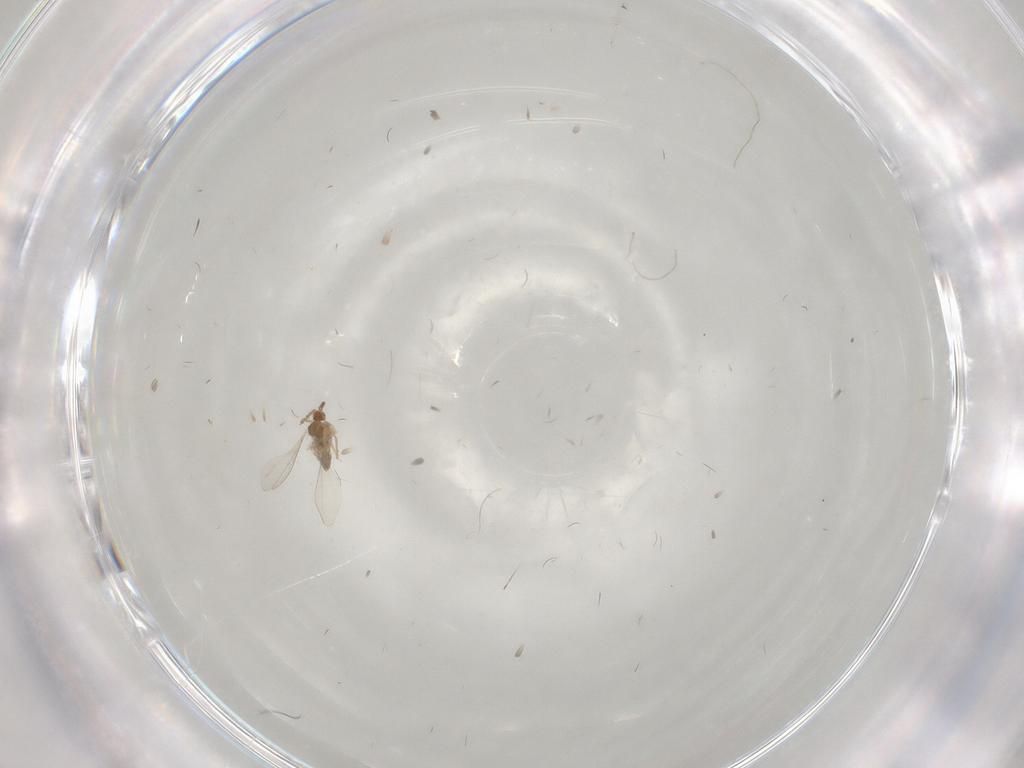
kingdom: Animalia
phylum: Arthropoda
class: Insecta
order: Diptera
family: Cecidomyiidae
